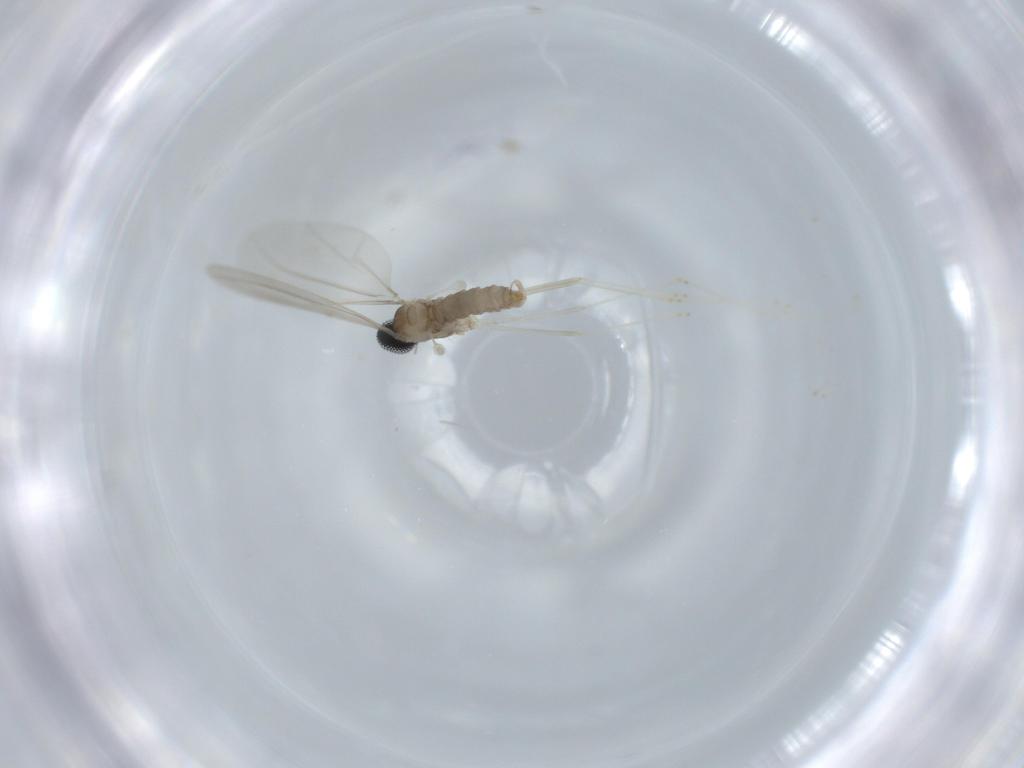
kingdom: Animalia
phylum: Arthropoda
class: Insecta
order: Diptera
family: Cecidomyiidae
